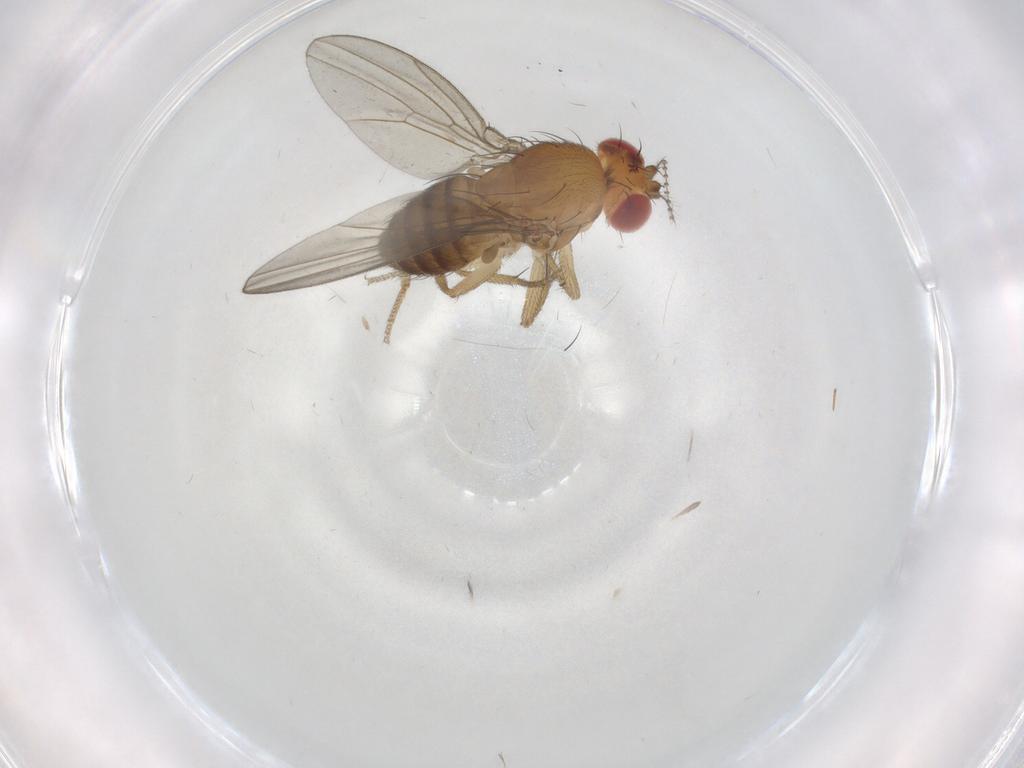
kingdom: Animalia
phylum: Arthropoda
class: Insecta
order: Diptera
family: Drosophilidae
